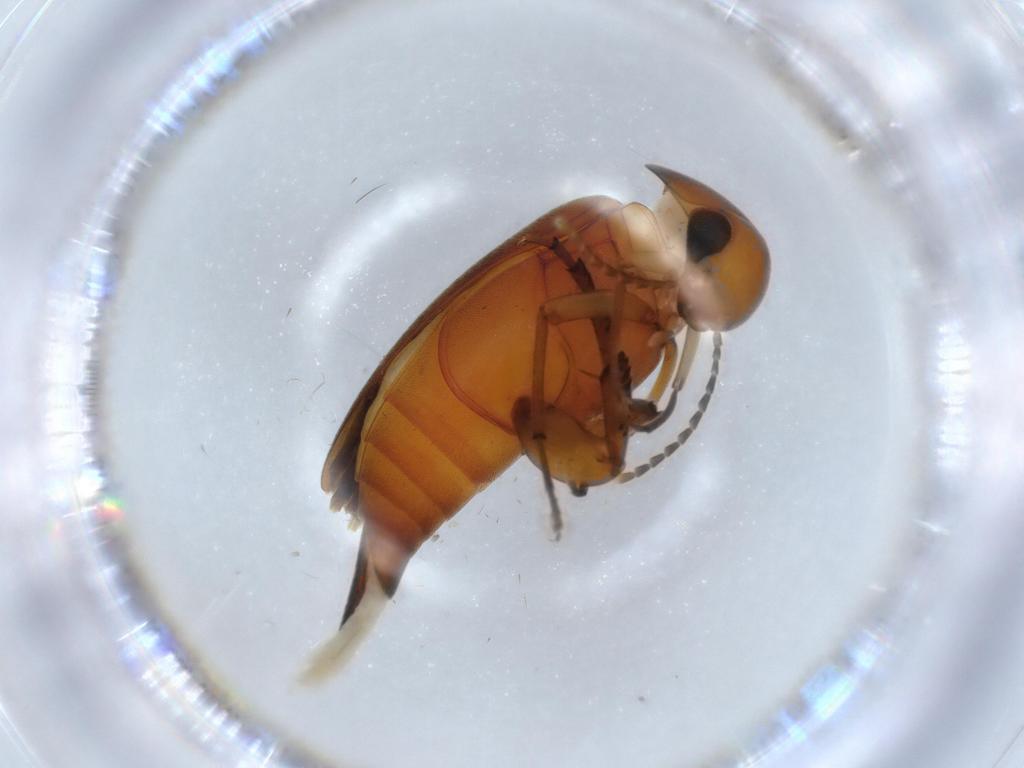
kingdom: Animalia
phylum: Arthropoda
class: Insecta
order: Coleoptera
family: Mordellidae
